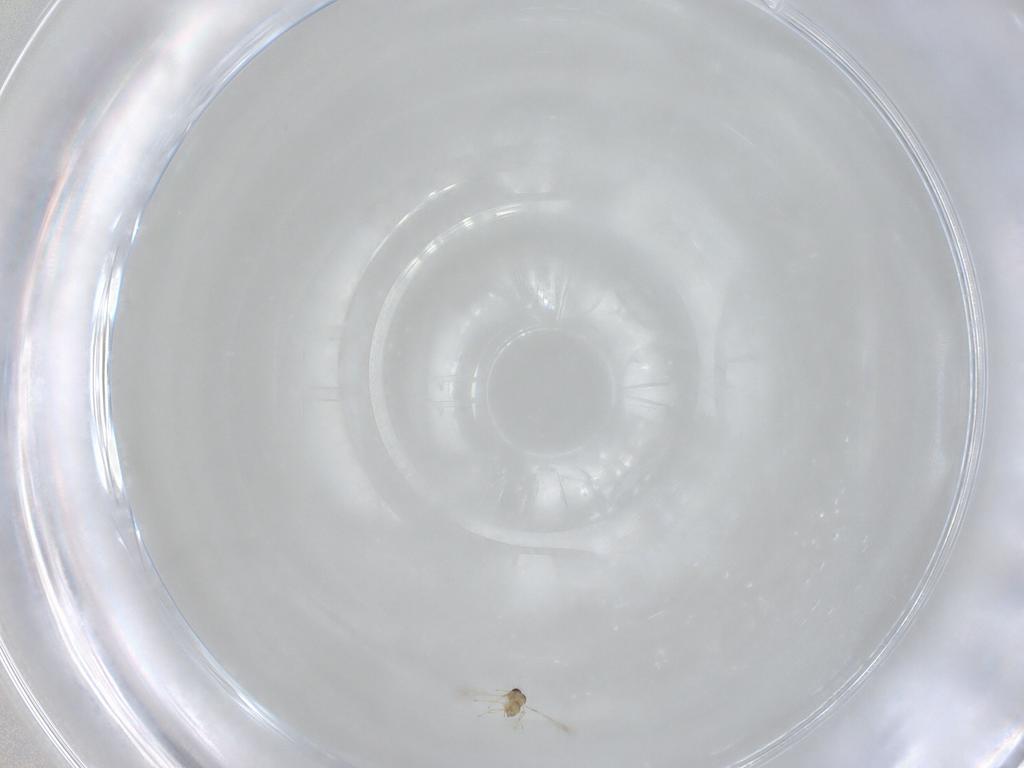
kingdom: Animalia
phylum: Arthropoda
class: Insecta
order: Hymenoptera
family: Mymaridae
